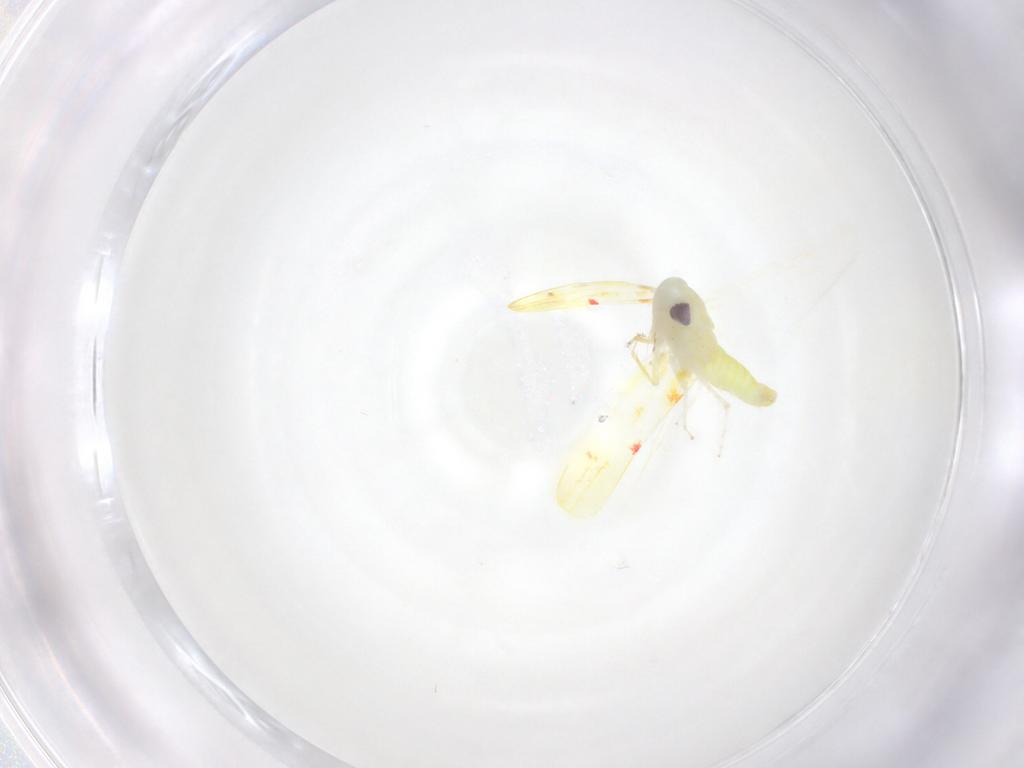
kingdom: Animalia
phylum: Arthropoda
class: Insecta
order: Hemiptera
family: Cicadellidae
